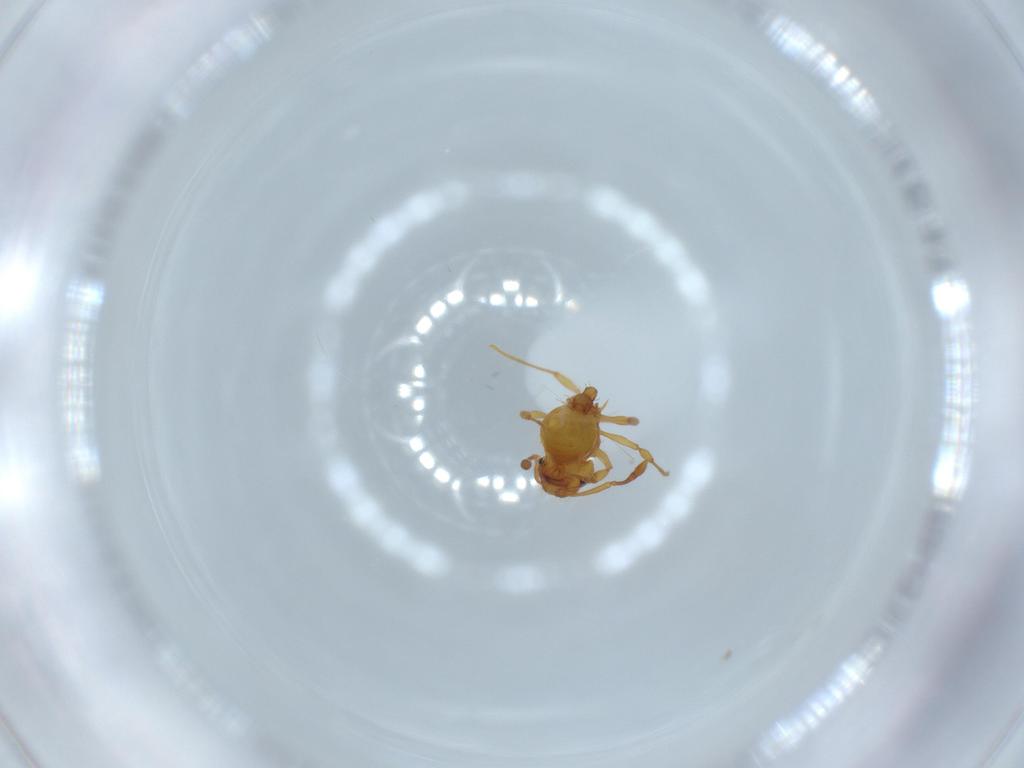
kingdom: Animalia
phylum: Arthropoda
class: Insecta
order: Hymenoptera
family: Formicidae
